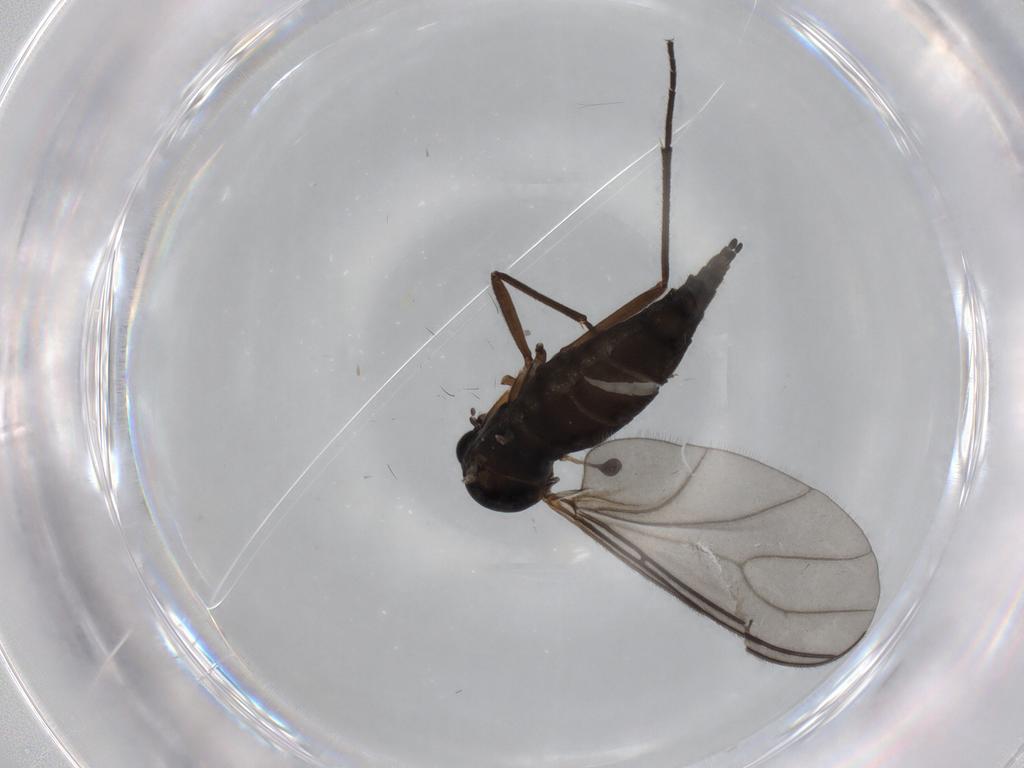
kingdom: Animalia
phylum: Arthropoda
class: Insecta
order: Diptera
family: Sciaridae
